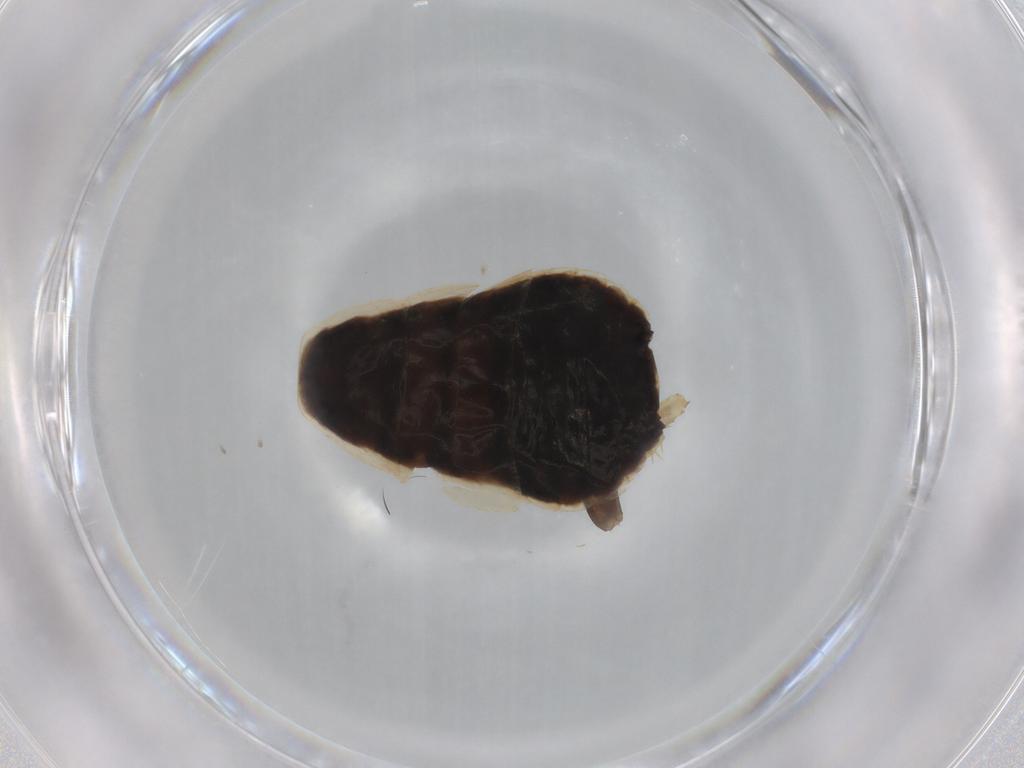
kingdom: Animalia
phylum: Arthropoda
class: Insecta
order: Blattodea
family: Ectobiidae
